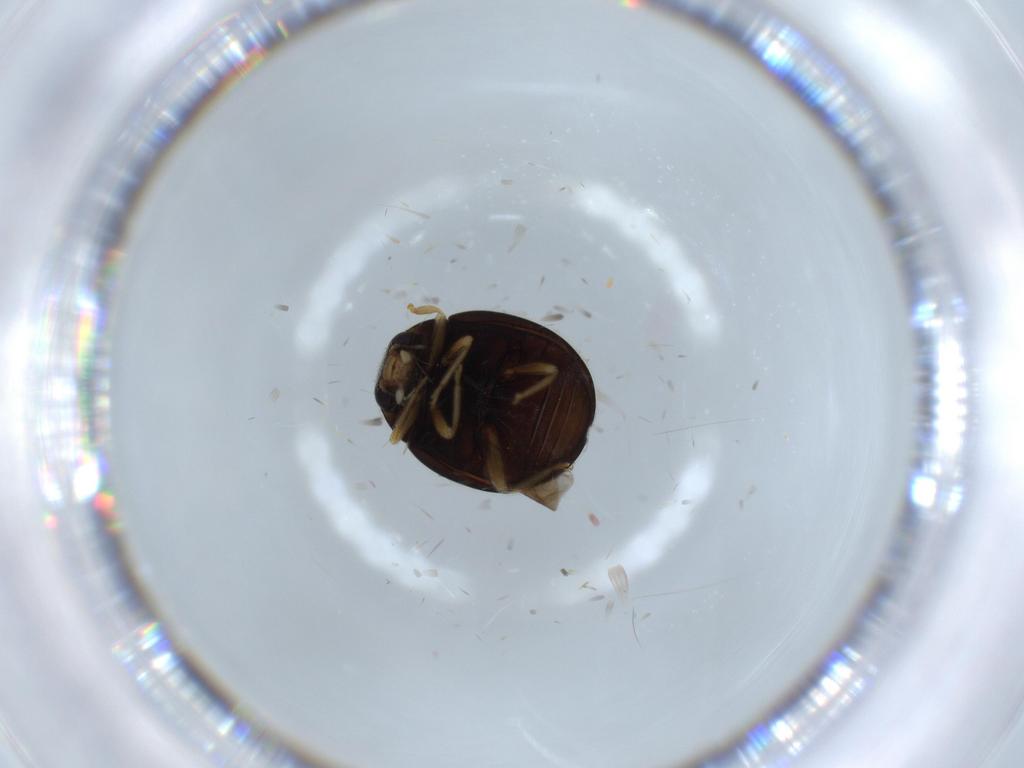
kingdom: Animalia
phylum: Arthropoda
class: Insecta
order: Coleoptera
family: Coccinellidae
